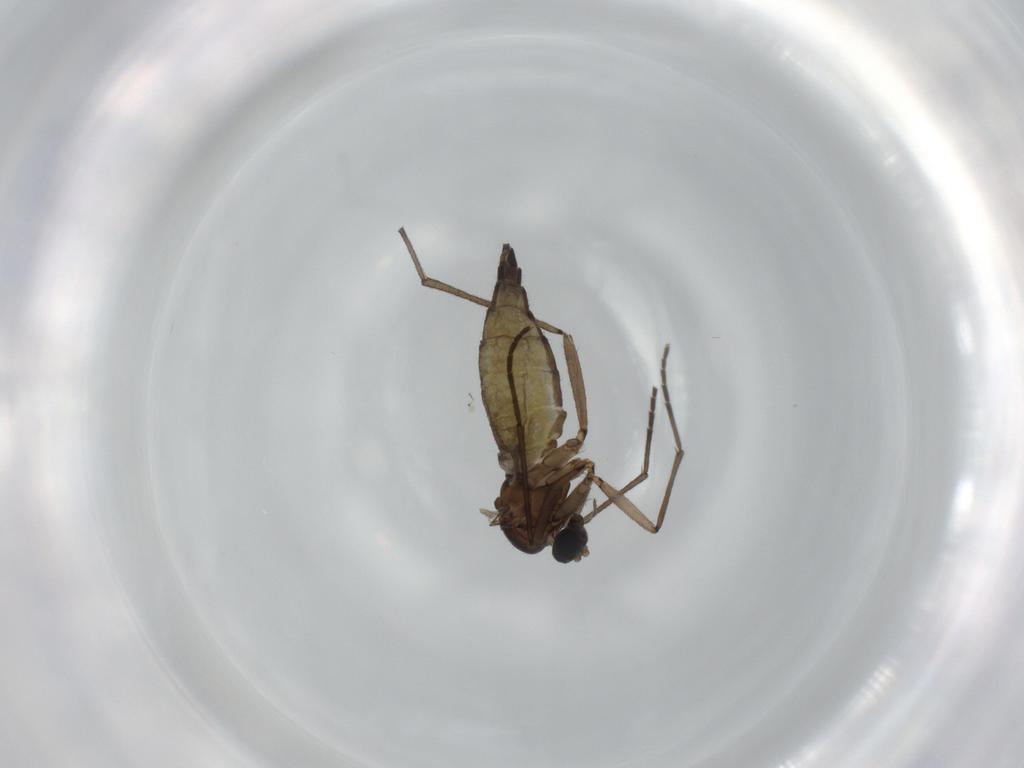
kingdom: Animalia
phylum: Arthropoda
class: Insecta
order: Diptera
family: Sciaridae
